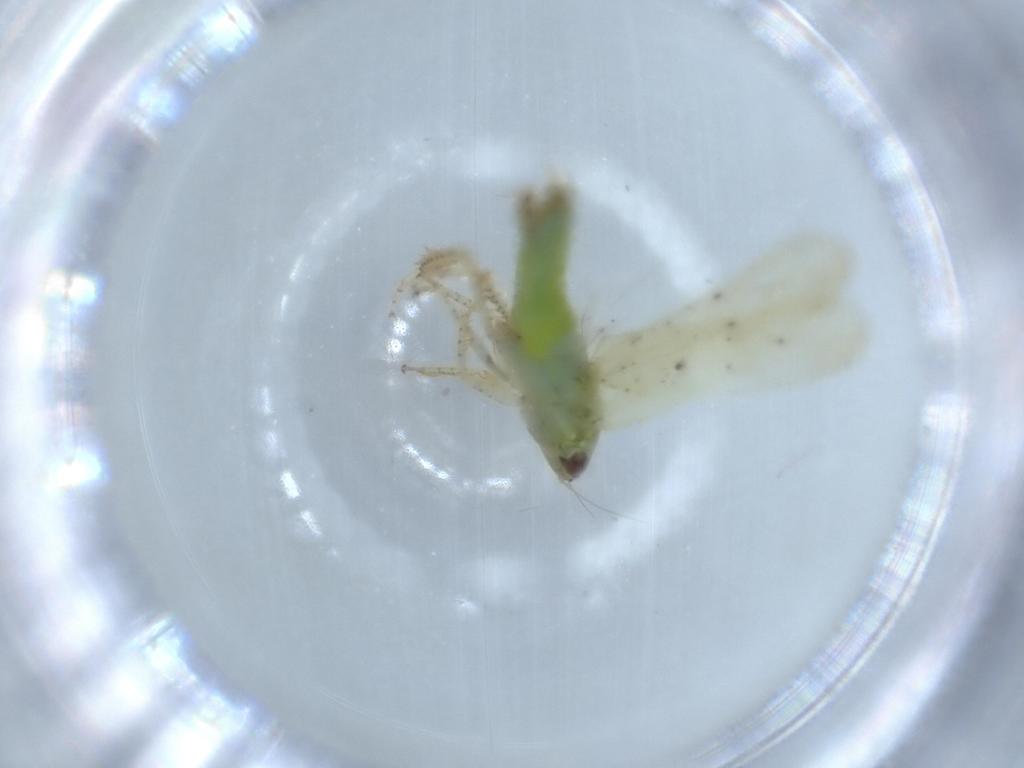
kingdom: Animalia
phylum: Arthropoda
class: Insecta
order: Hemiptera
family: Cicadellidae
